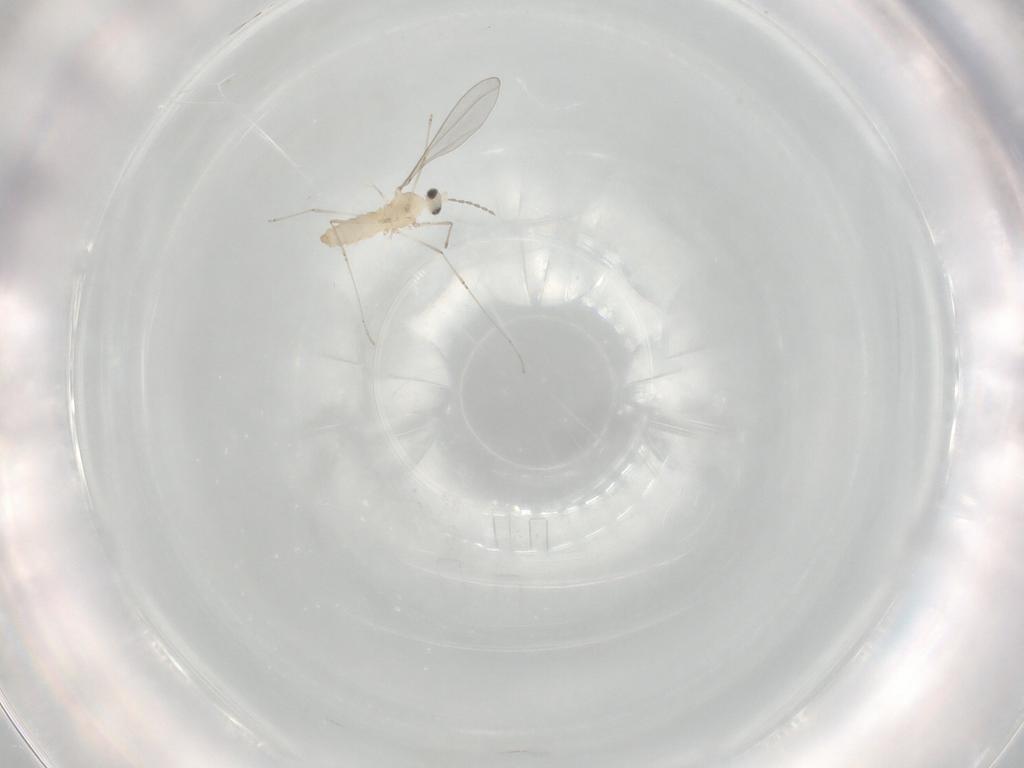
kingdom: Animalia
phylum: Arthropoda
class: Insecta
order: Diptera
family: Cecidomyiidae
